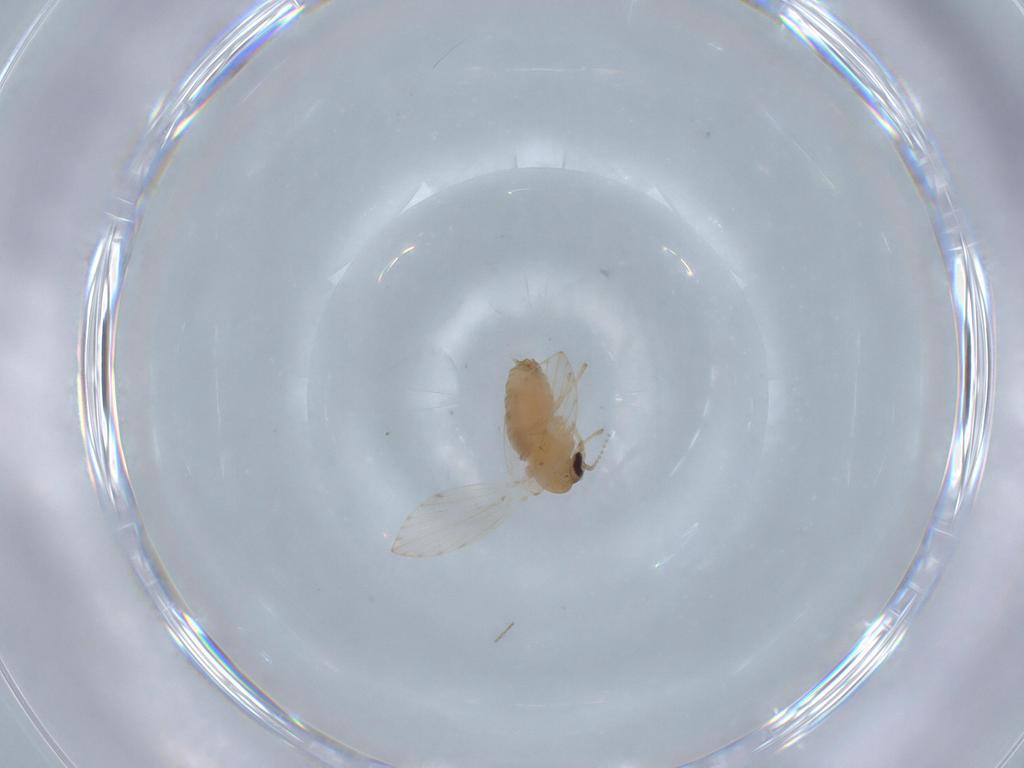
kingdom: Animalia
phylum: Arthropoda
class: Insecta
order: Diptera
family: Psychodidae
